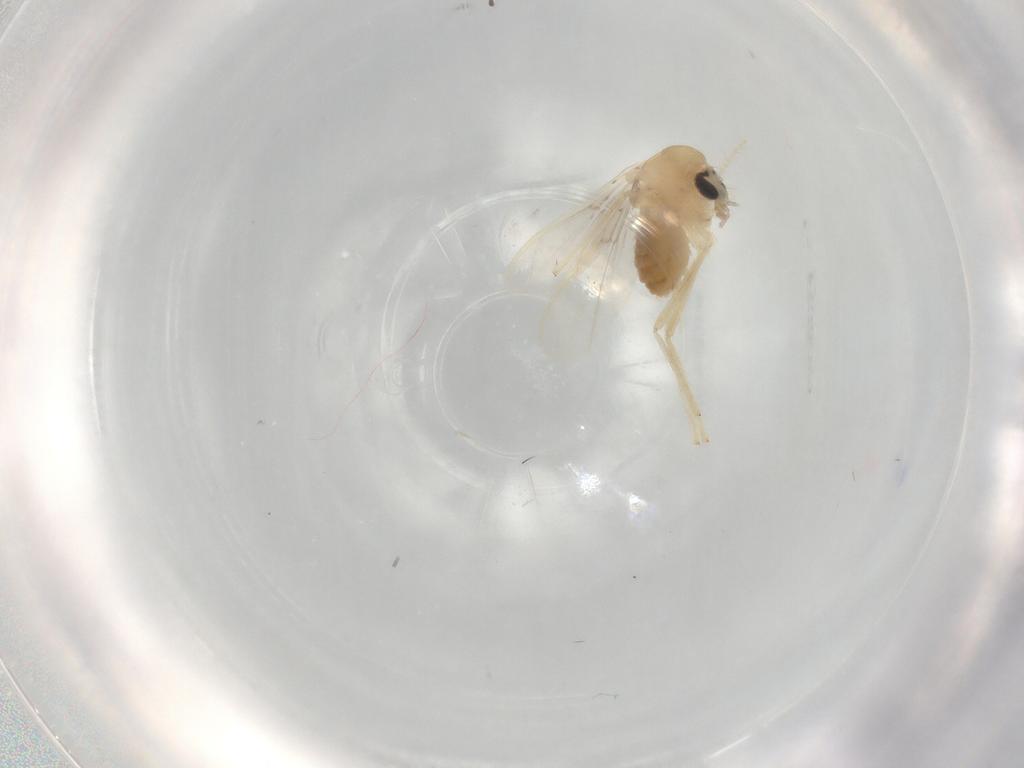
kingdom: Animalia
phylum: Arthropoda
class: Insecta
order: Diptera
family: Chironomidae
